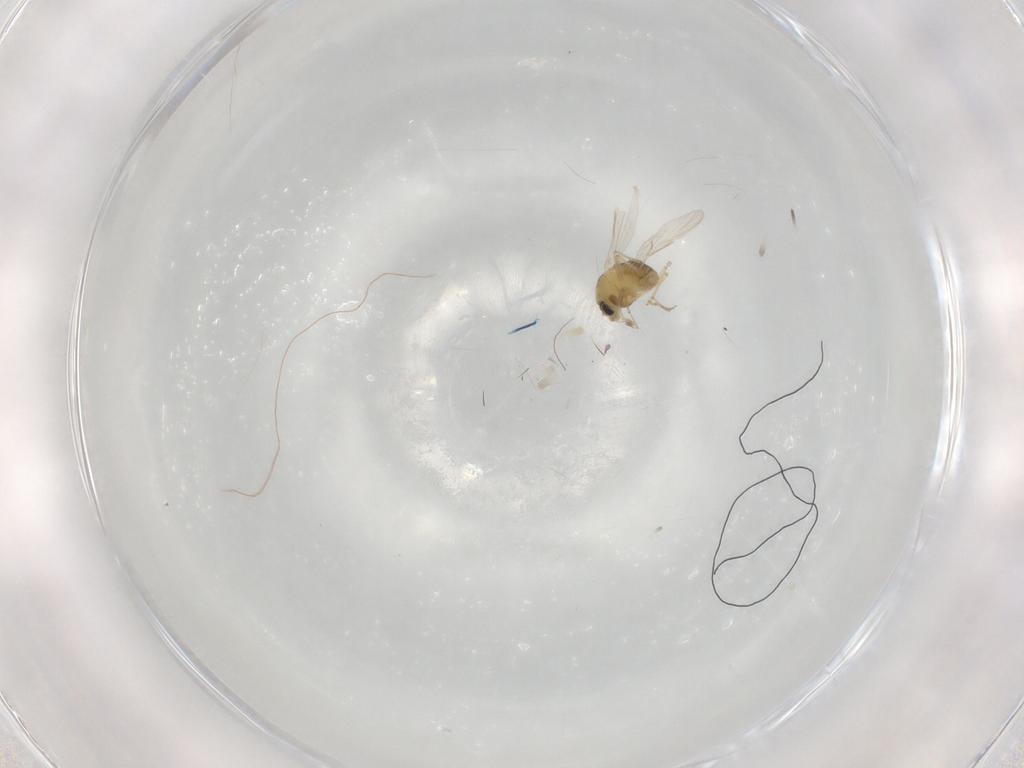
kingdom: Animalia
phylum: Arthropoda
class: Insecta
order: Diptera
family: Chironomidae
